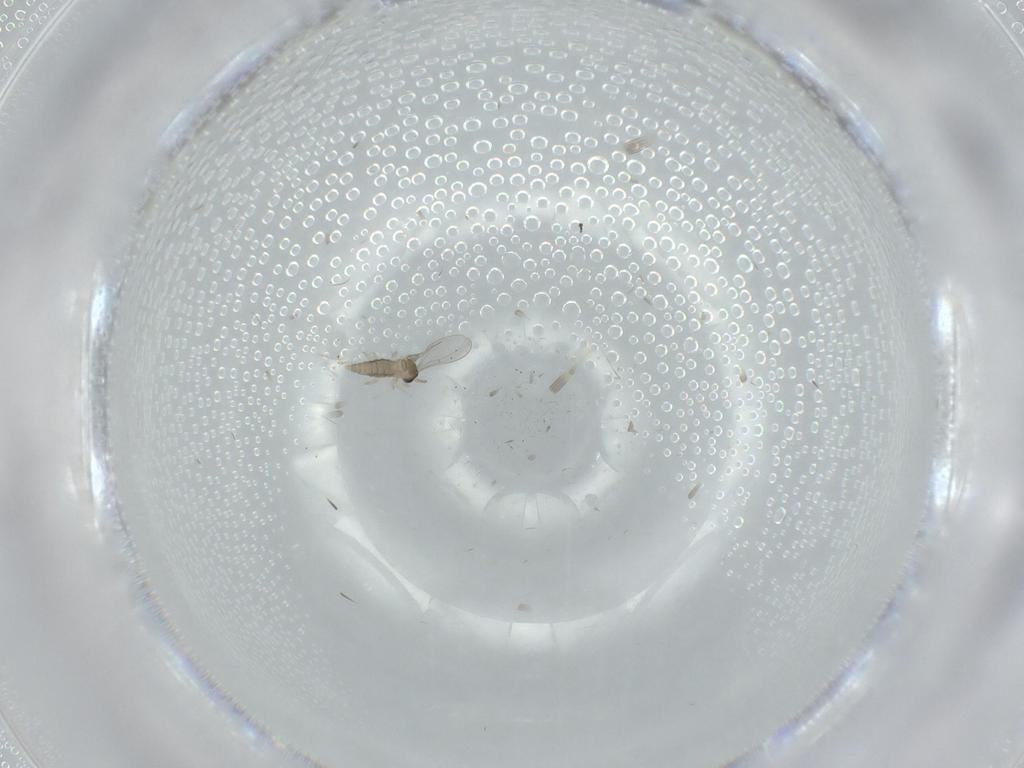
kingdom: Animalia
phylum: Arthropoda
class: Insecta
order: Diptera
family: Cecidomyiidae
